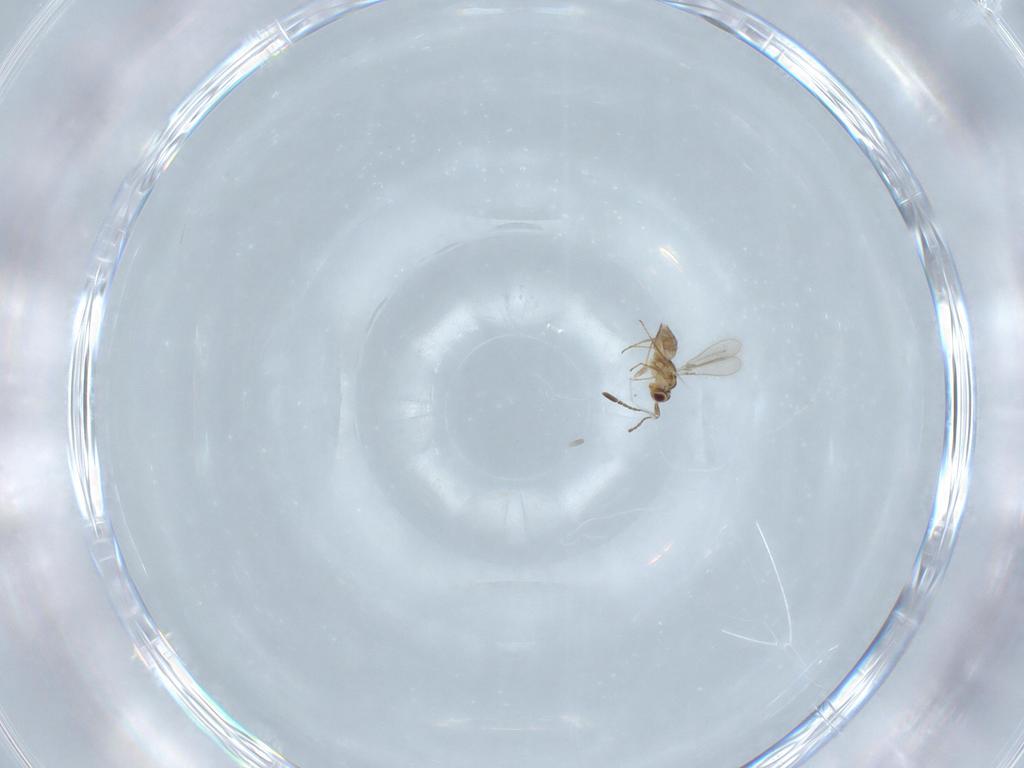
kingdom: Animalia
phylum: Arthropoda
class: Insecta
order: Hymenoptera
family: Mymaridae
